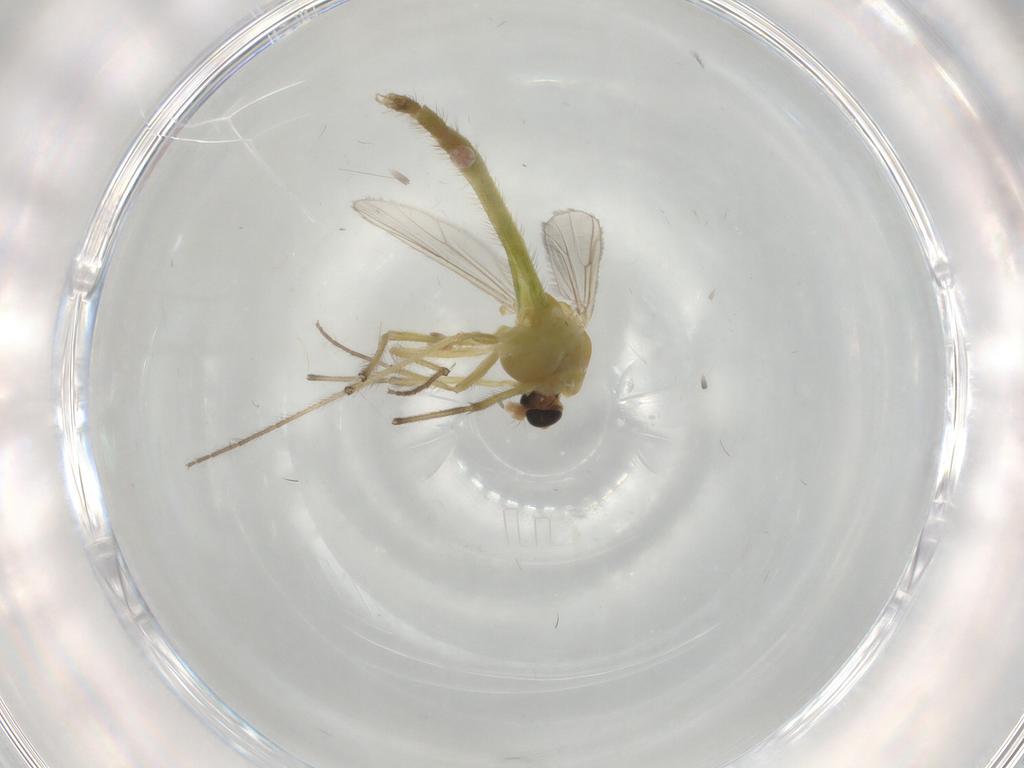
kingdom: Animalia
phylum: Arthropoda
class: Insecta
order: Diptera
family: Chironomidae
